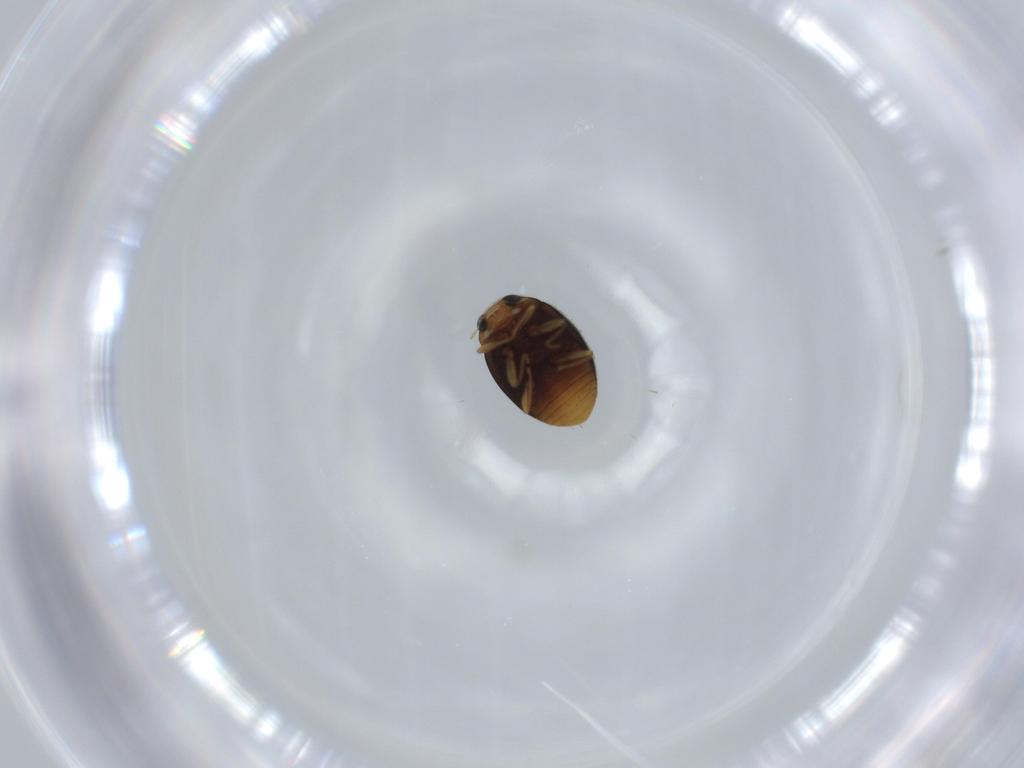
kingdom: Animalia
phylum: Arthropoda
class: Insecta
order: Coleoptera
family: Coccinellidae
